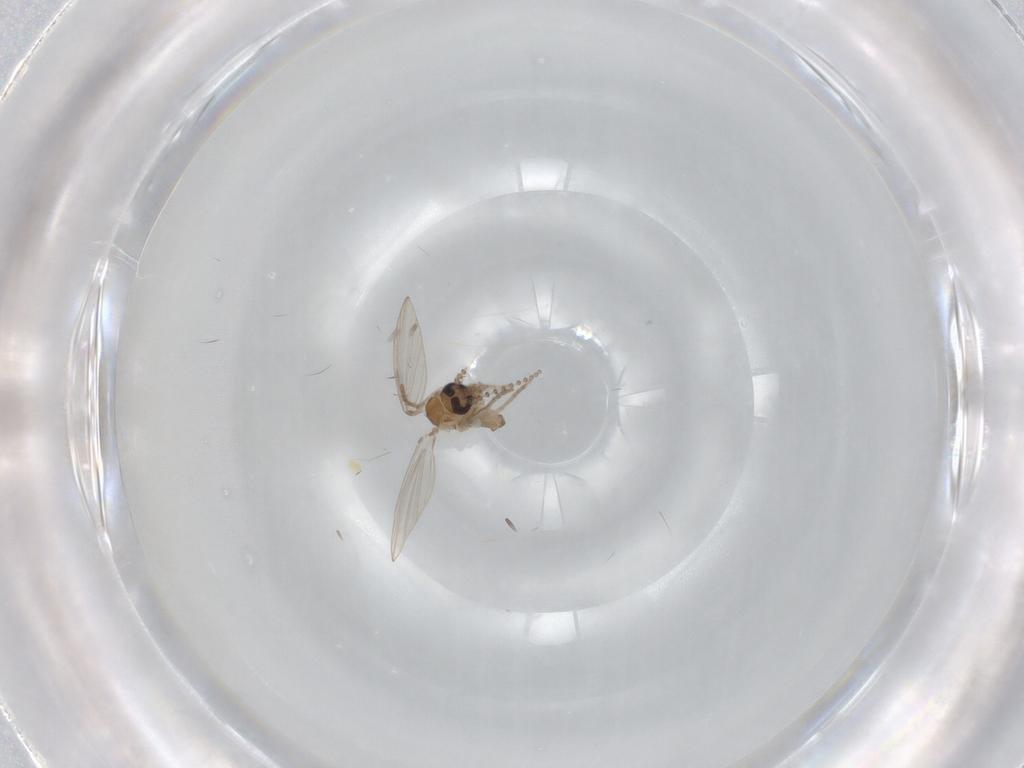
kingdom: Animalia
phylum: Arthropoda
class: Insecta
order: Diptera
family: Psychodidae
